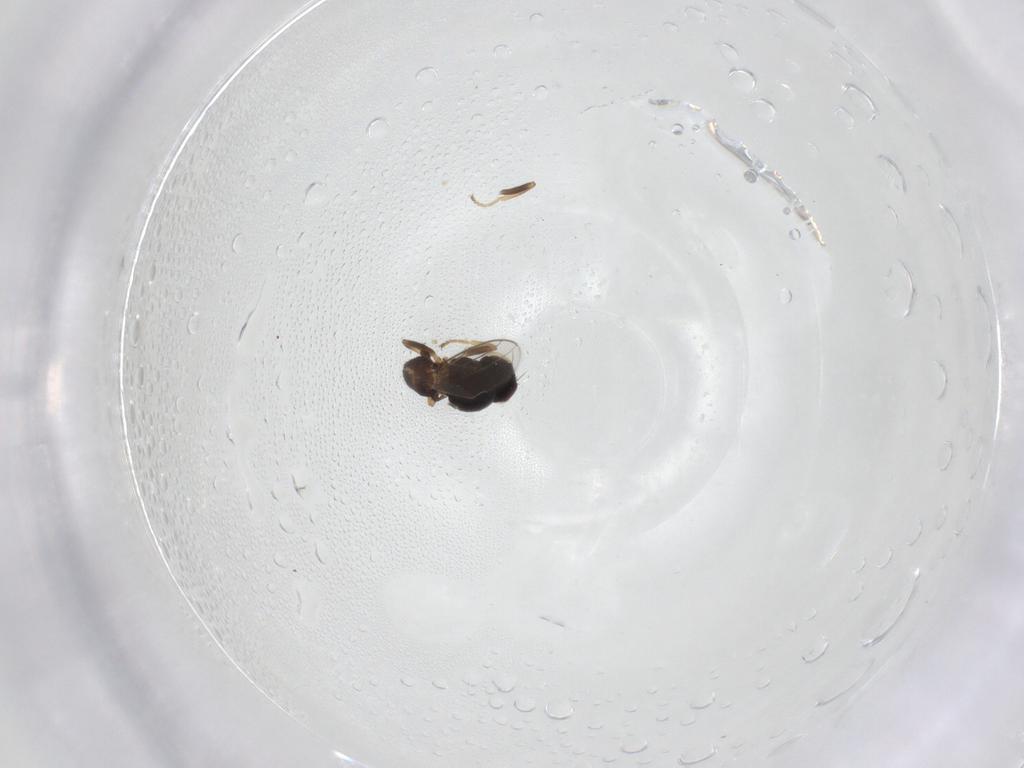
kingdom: Animalia
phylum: Arthropoda
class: Insecta
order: Diptera
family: Chloropidae
